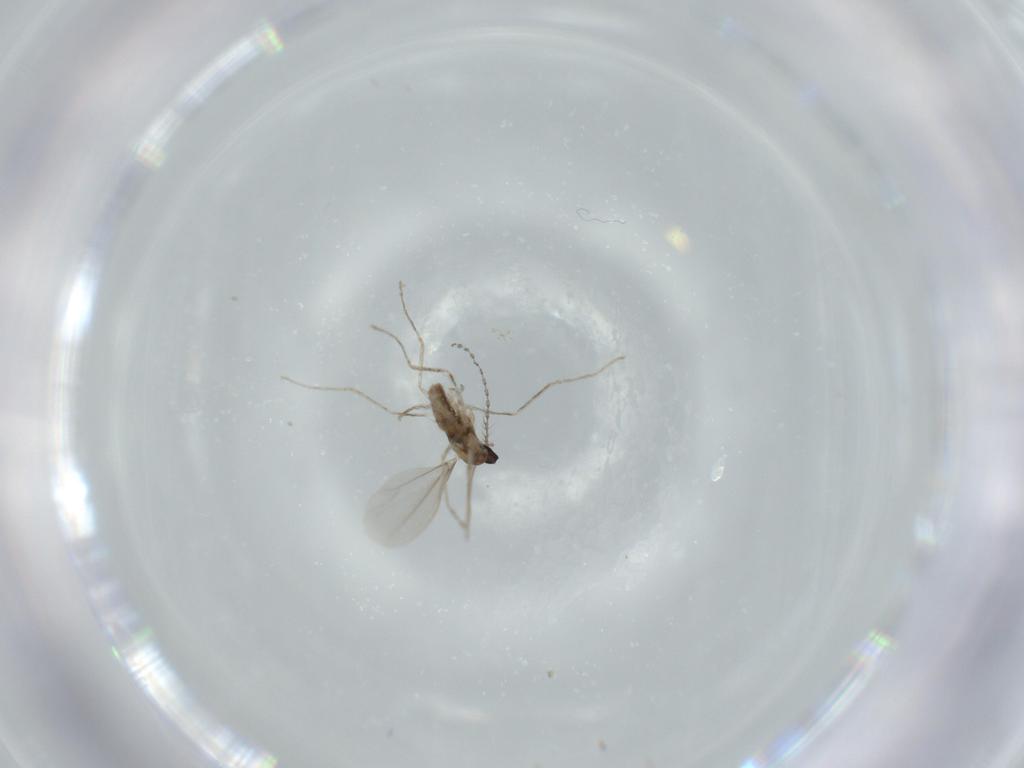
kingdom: Animalia
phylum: Arthropoda
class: Insecta
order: Diptera
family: Cecidomyiidae
